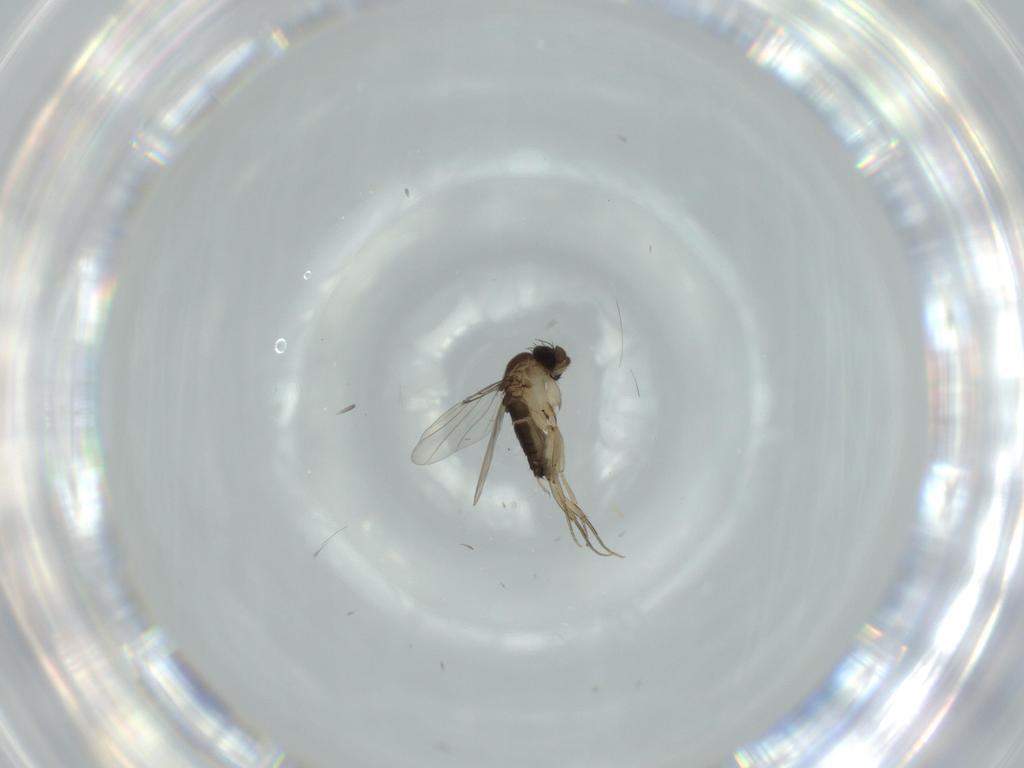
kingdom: Animalia
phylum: Arthropoda
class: Insecta
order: Diptera
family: Phoridae
